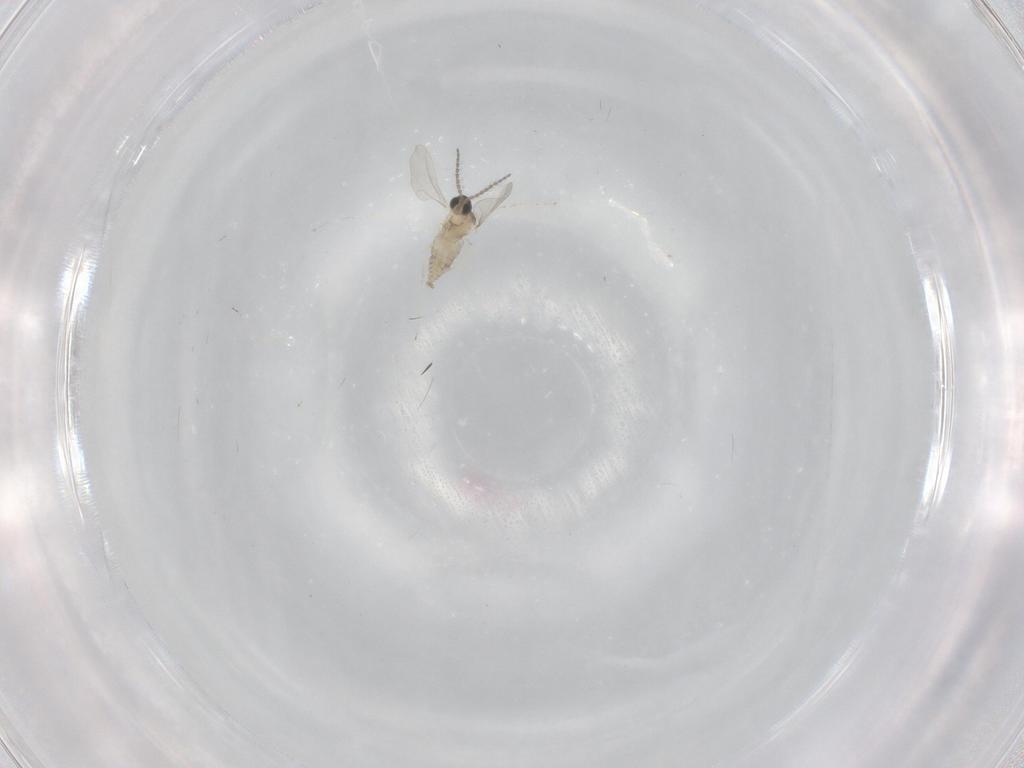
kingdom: Animalia
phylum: Arthropoda
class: Insecta
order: Diptera
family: Cecidomyiidae
